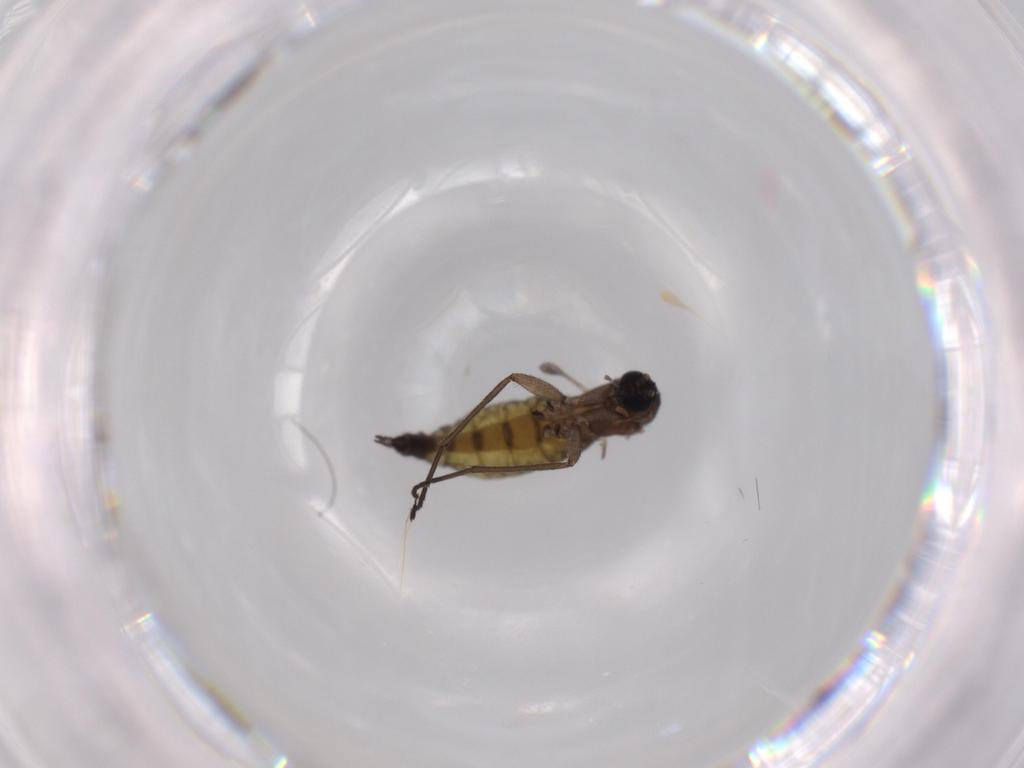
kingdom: Animalia
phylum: Arthropoda
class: Insecta
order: Diptera
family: Sciaridae
